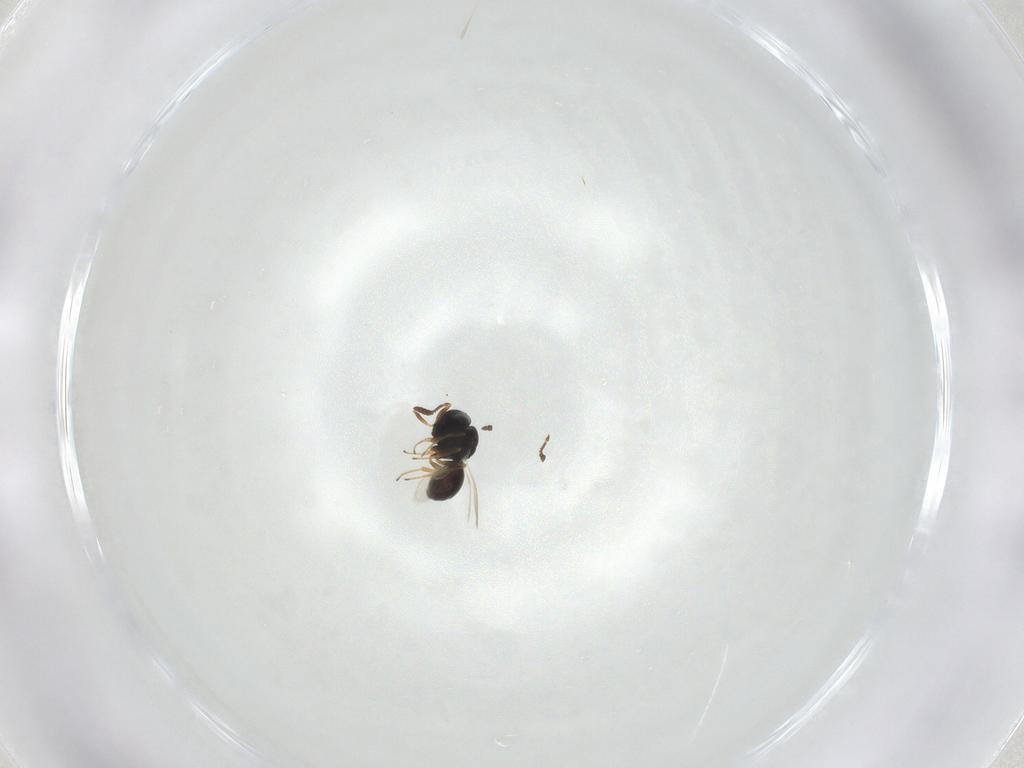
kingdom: Animalia
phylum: Arthropoda
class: Insecta
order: Hymenoptera
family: Scelionidae
